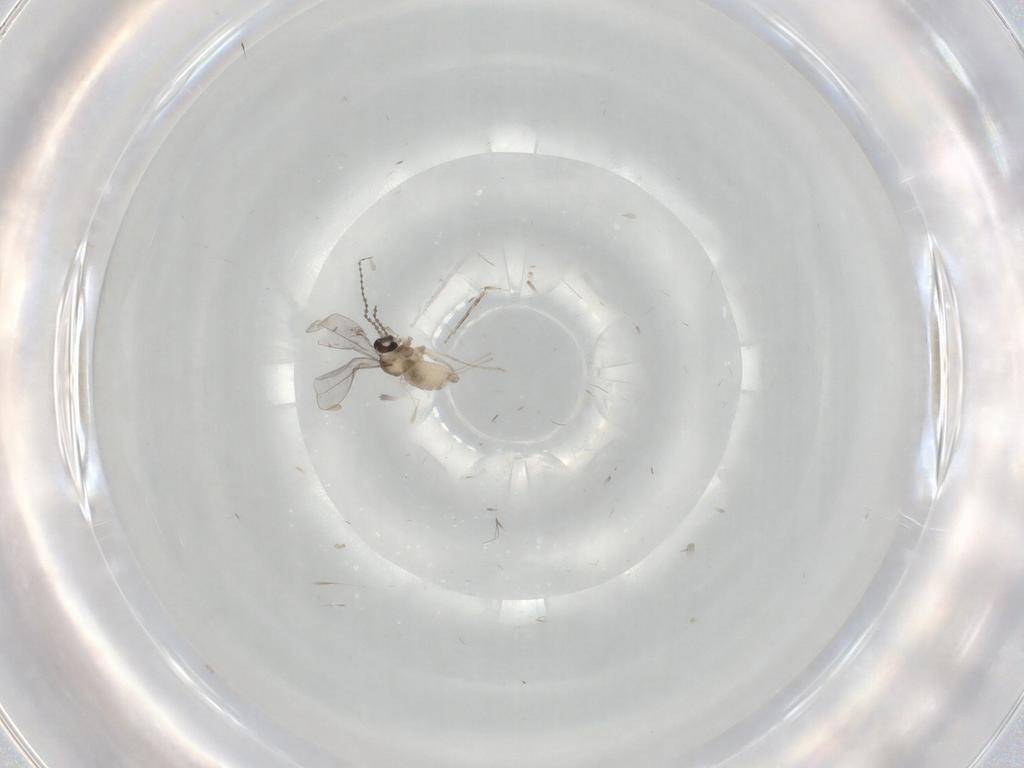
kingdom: Animalia
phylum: Arthropoda
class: Insecta
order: Diptera
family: Cecidomyiidae
